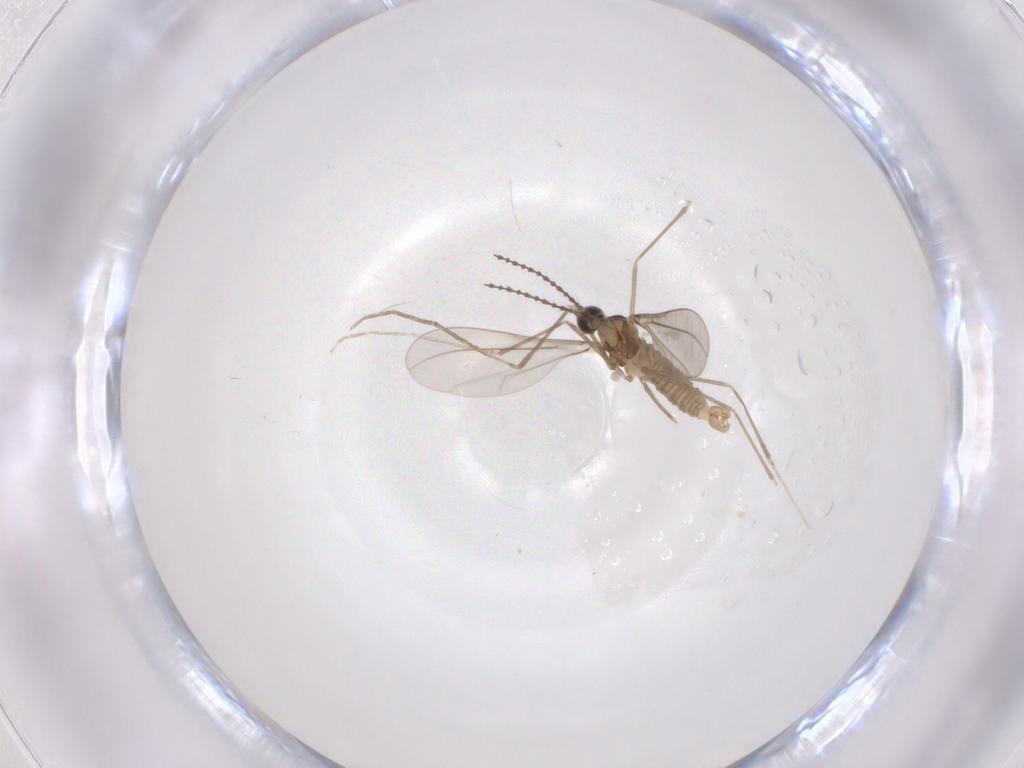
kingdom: Animalia
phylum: Arthropoda
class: Insecta
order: Diptera
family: Cecidomyiidae
